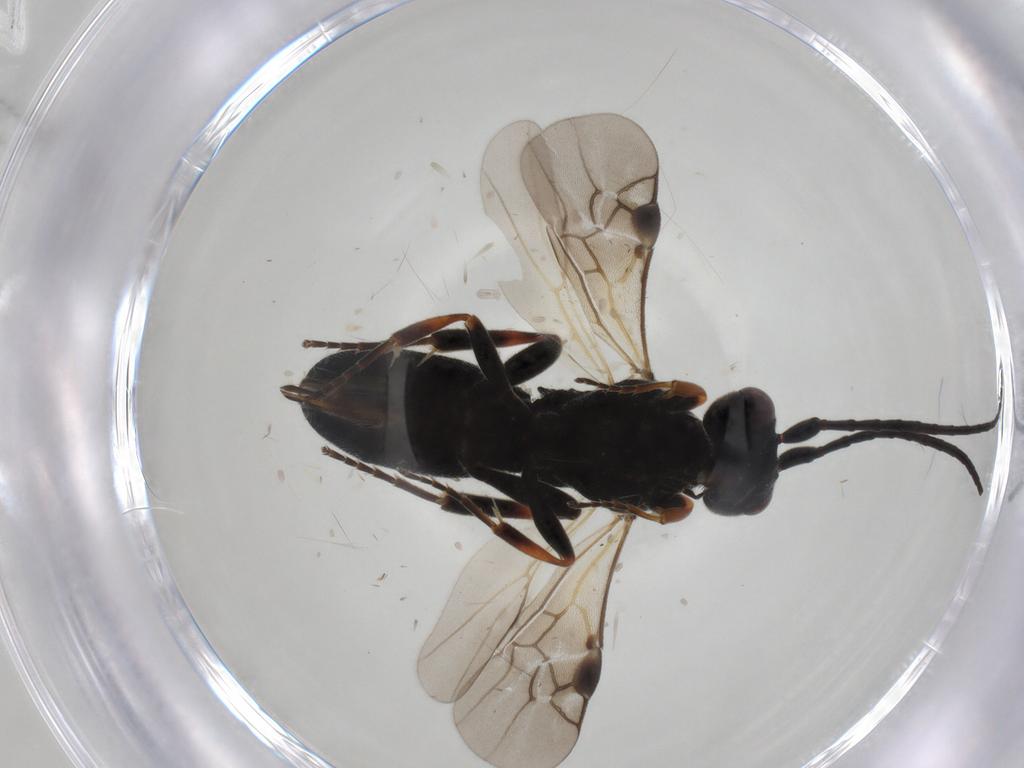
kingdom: Animalia
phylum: Arthropoda
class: Insecta
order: Hymenoptera
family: Braconidae
